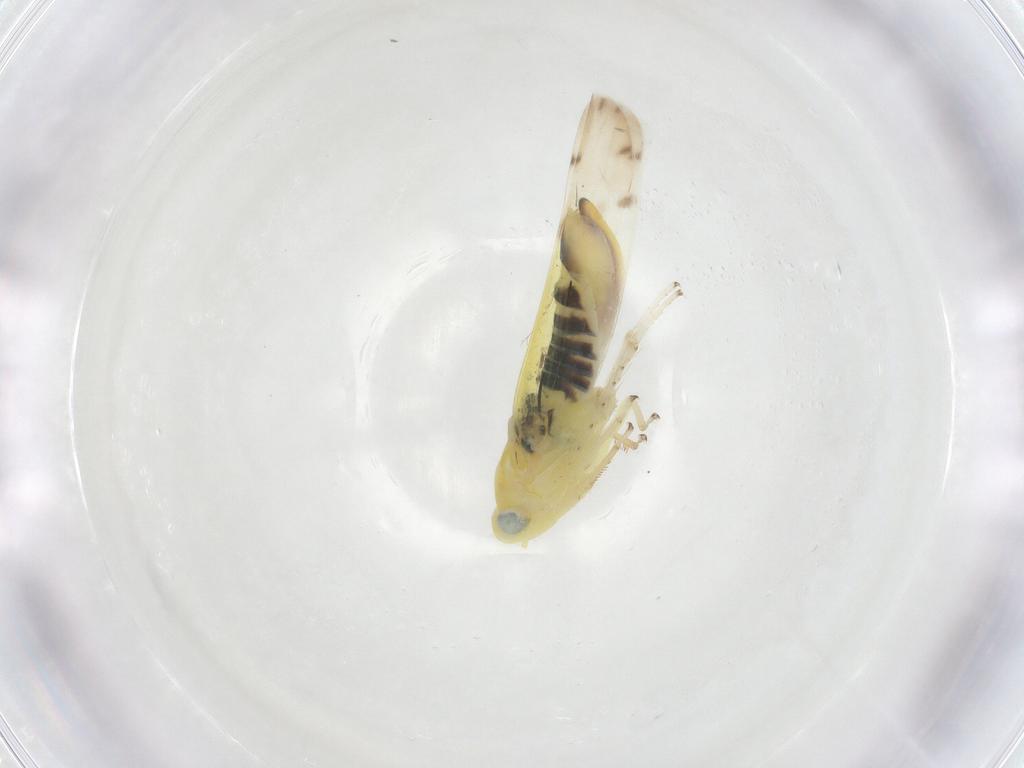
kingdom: Animalia
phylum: Arthropoda
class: Insecta
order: Hemiptera
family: Cicadellidae
